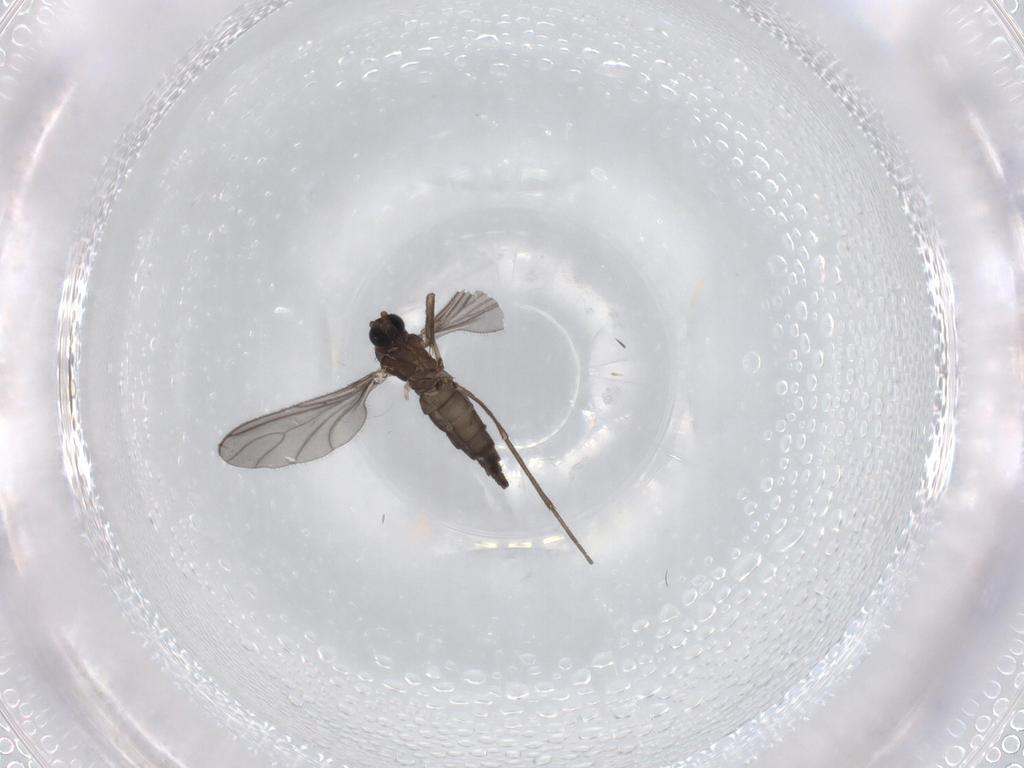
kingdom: Animalia
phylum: Arthropoda
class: Insecta
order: Diptera
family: Sciaridae
